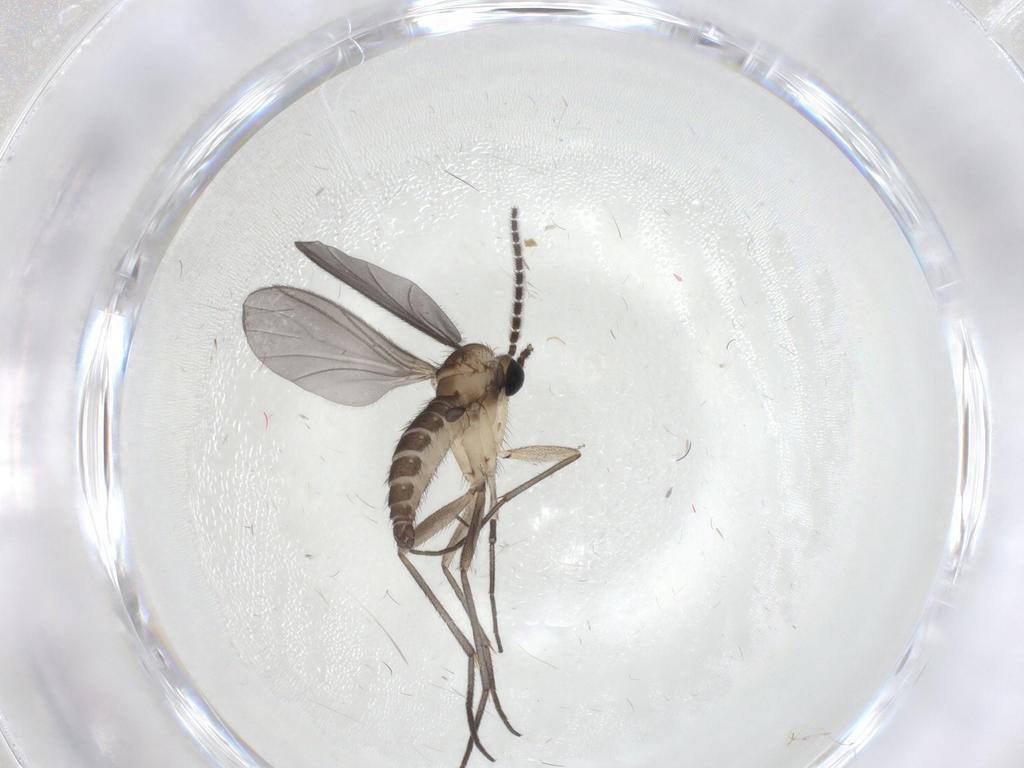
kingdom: Animalia
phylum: Arthropoda
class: Insecta
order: Diptera
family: Sciaridae
